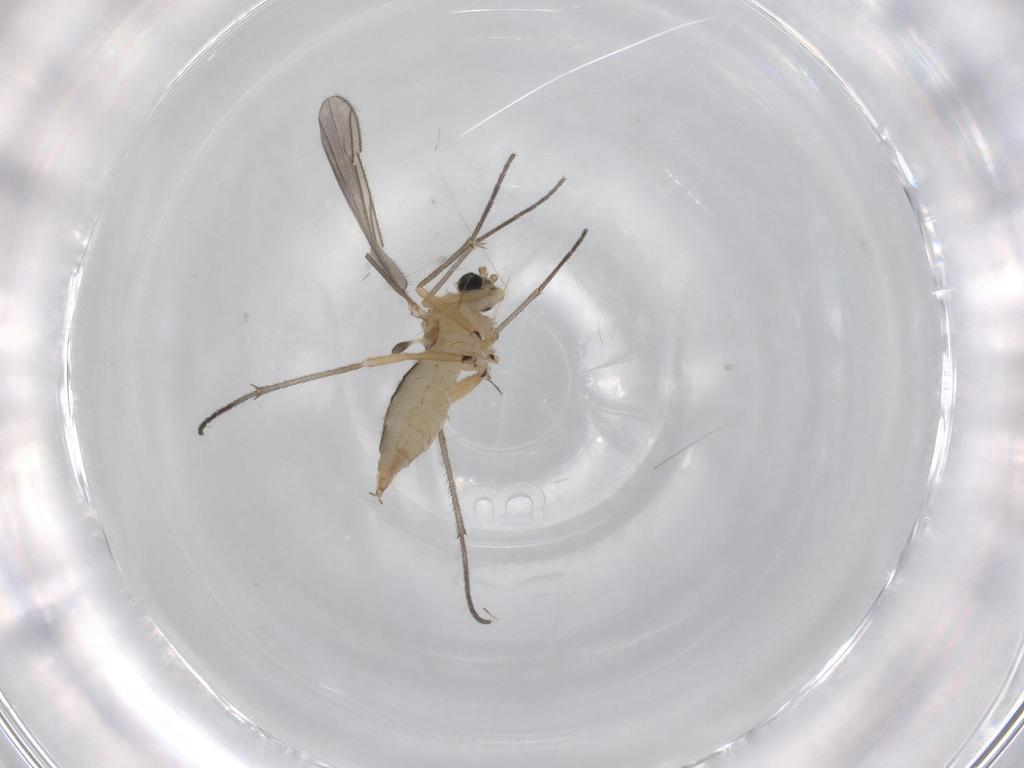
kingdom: Animalia
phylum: Arthropoda
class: Insecta
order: Diptera
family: Sciaridae
